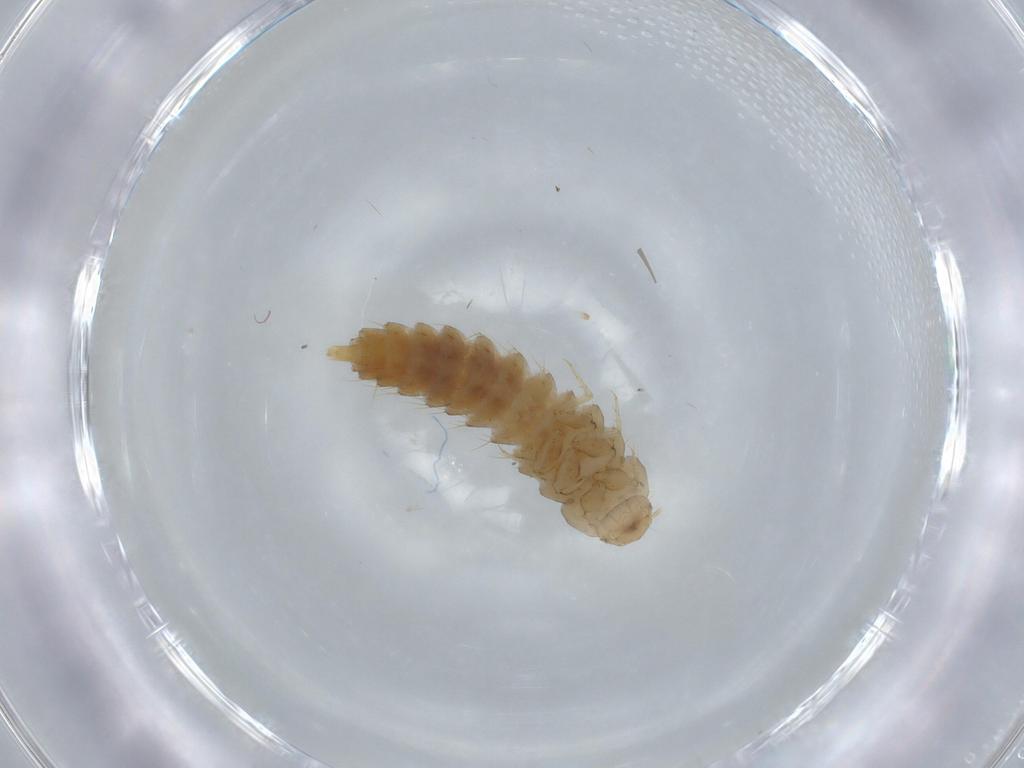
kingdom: Animalia
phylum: Arthropoda
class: Insecta
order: Coleoptera
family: Staphylinidae
